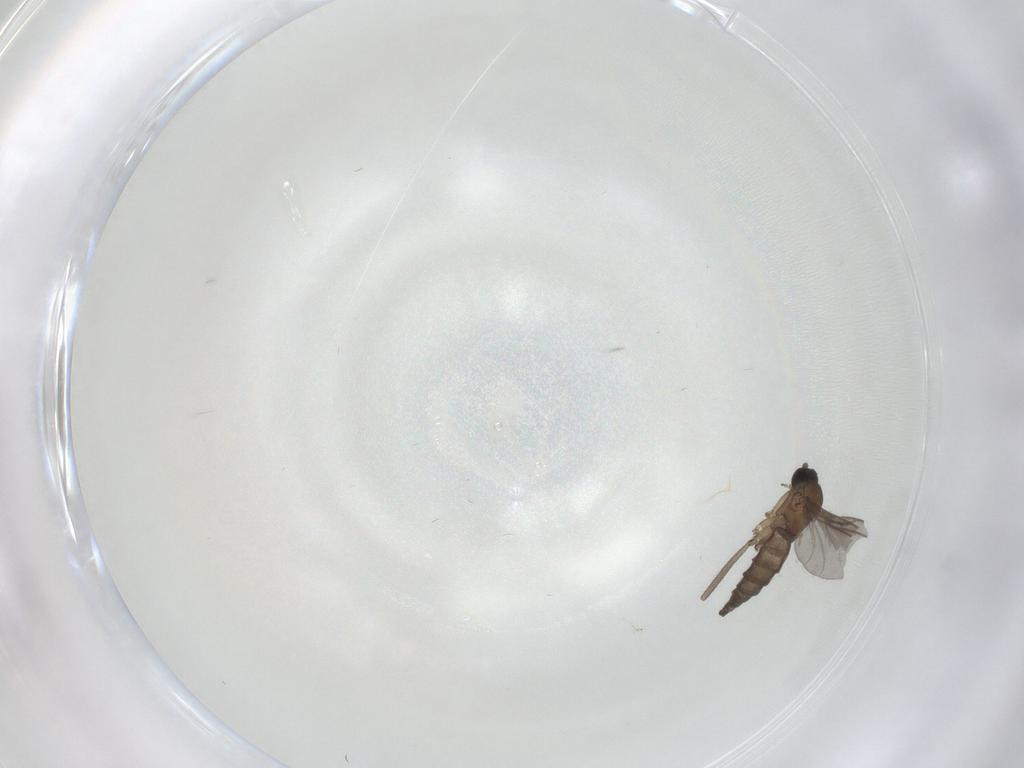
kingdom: Animalia
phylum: Arthropoda
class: Insecta
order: Diptera
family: Sciaridae
